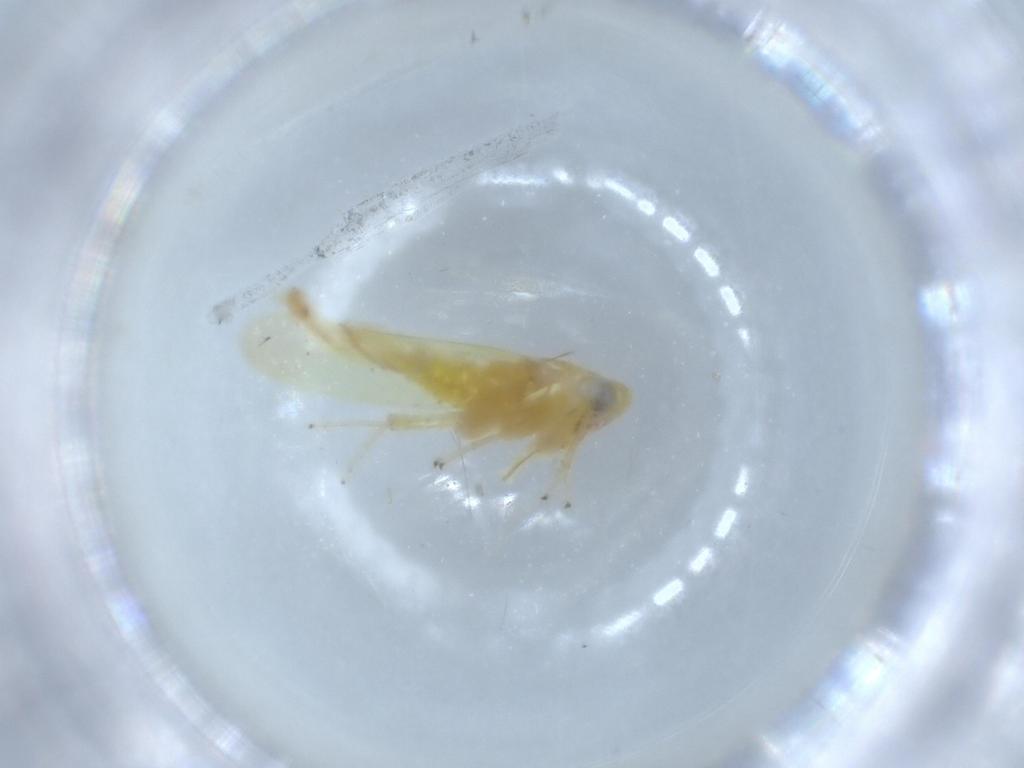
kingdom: Animalia
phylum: Arthropoda
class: Insecta
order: Hemiptera
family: Cicadellidae
